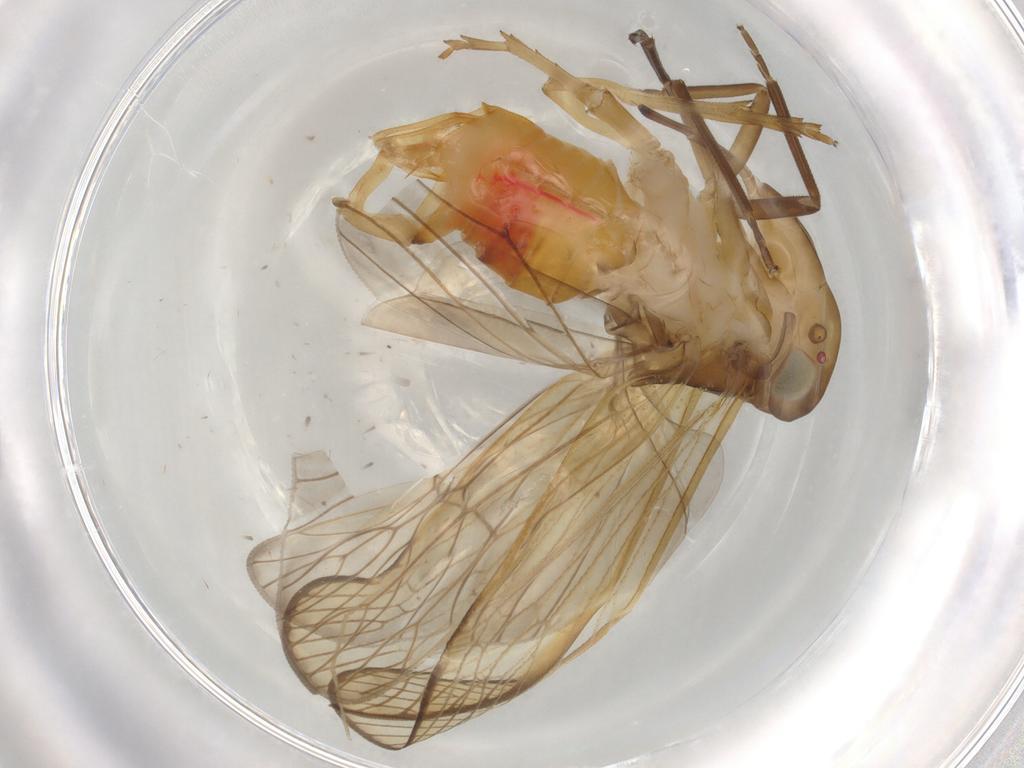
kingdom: Animalia
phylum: Arthropoda
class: Insecta
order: Hemiptera
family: Cixiidae
